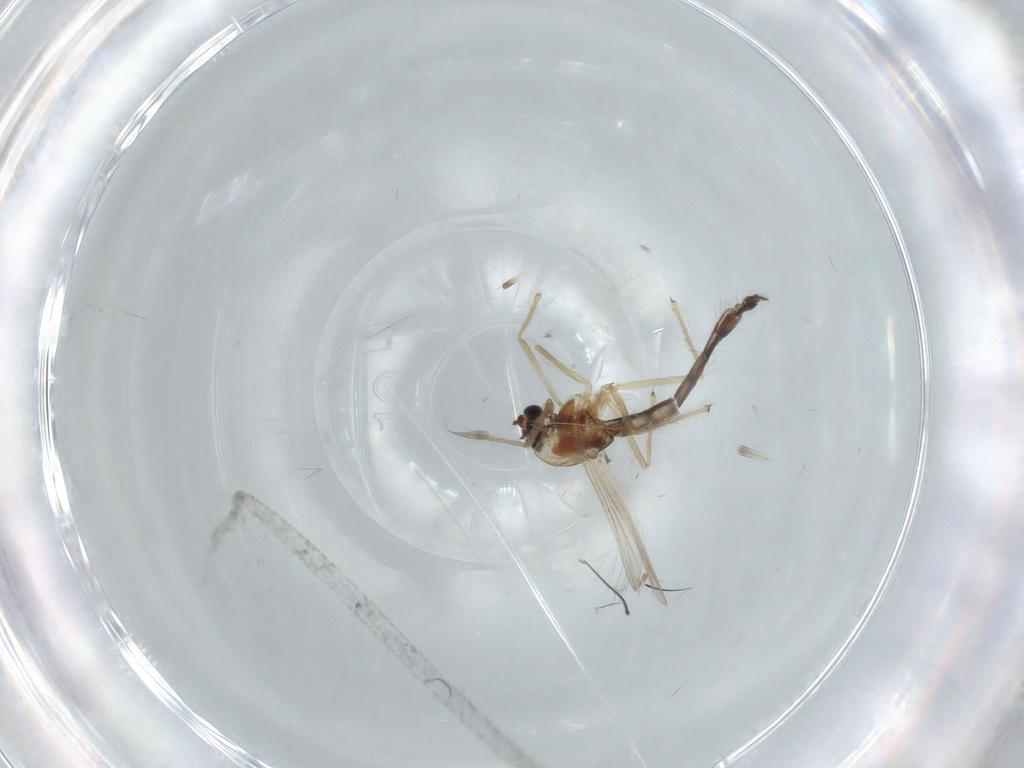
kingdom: Animalia
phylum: Arthropoda
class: Insecta
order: Diptera
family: Chironomidae
